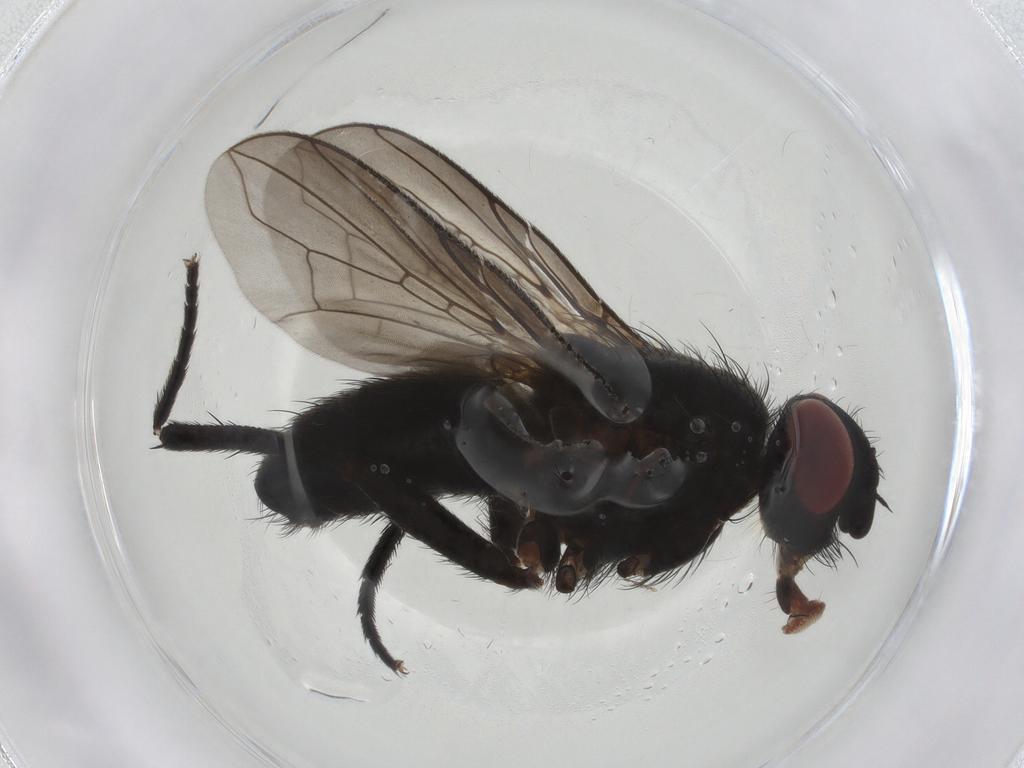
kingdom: Animalia
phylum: Arthropoda
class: Insecta
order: Diptera
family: Chironomidae
